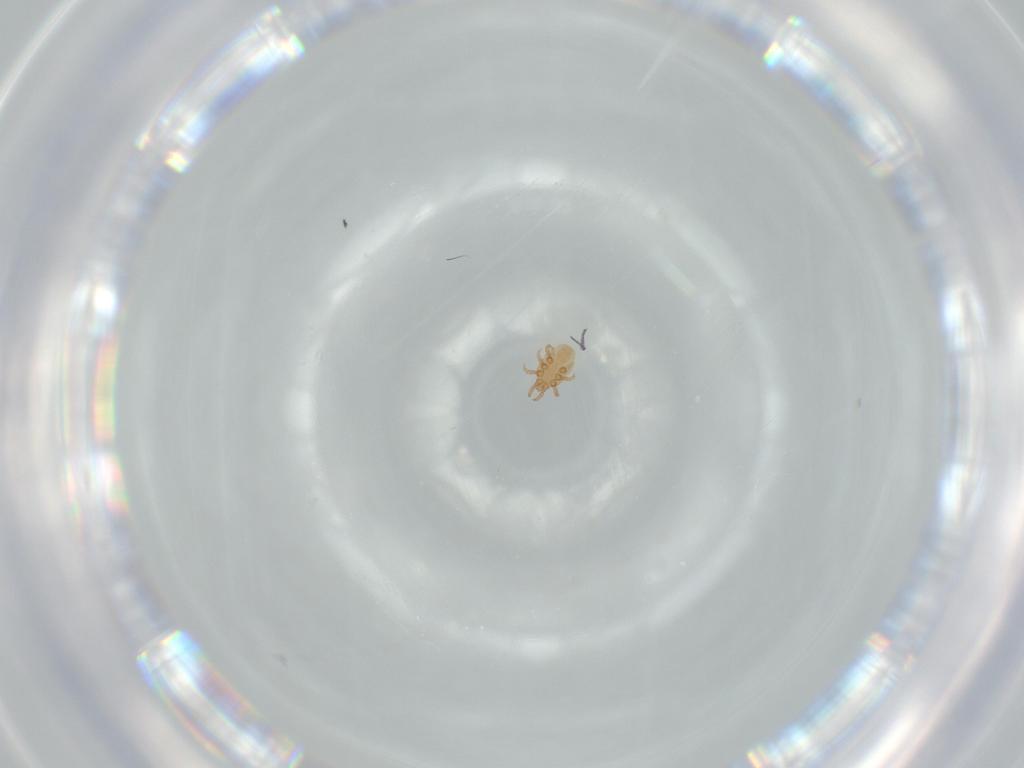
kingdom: Animalia
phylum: Arthropoda
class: Arachnida
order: Mesostigmata
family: Dinychidae
